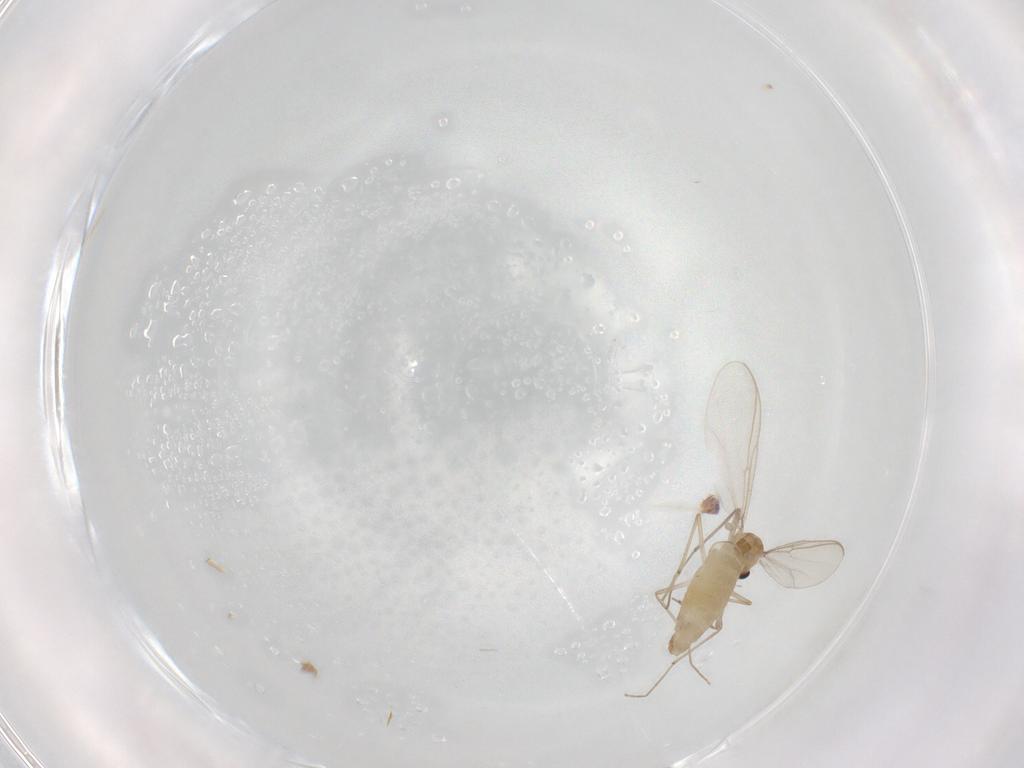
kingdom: Animalia
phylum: Arthropoda
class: Insecta
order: Diptera
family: Chironomidae
